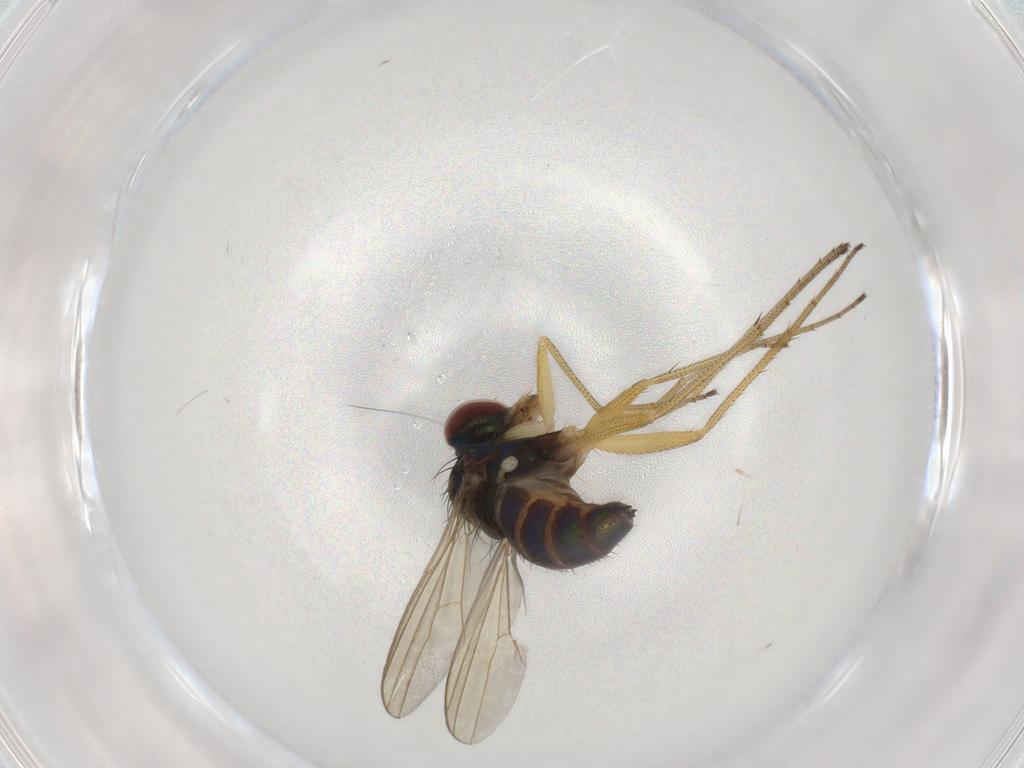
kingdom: Animalia
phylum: Arthropoda
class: Insecta
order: Diptera
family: Dolichopodidae
